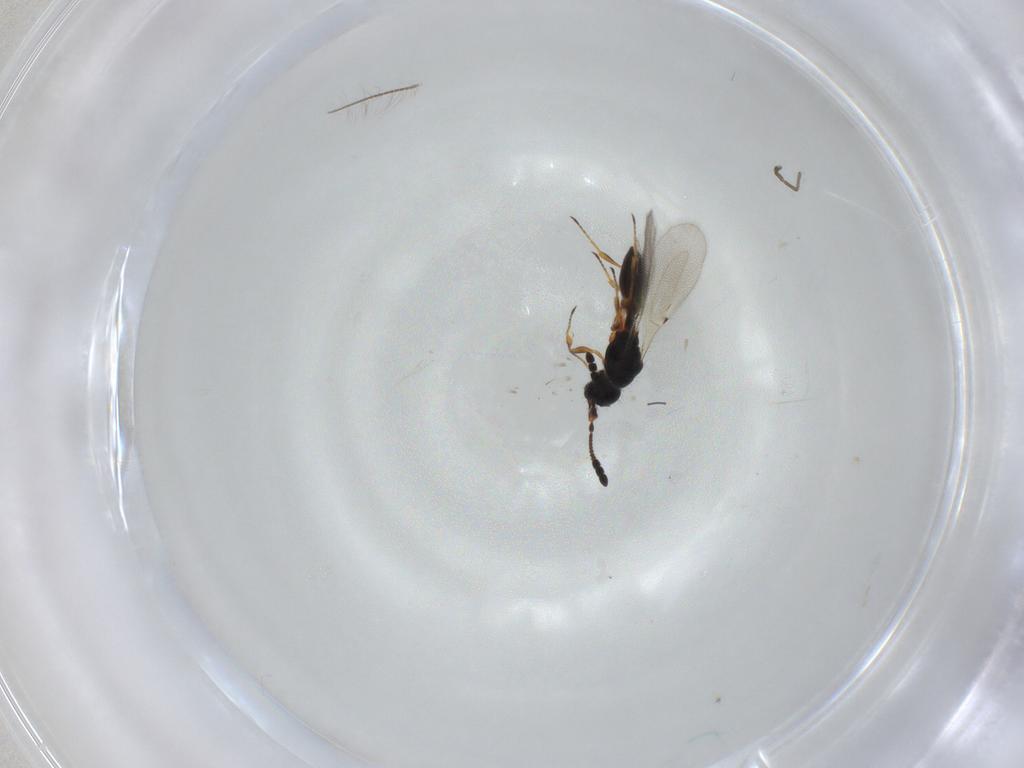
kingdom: Animalia
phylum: Arthropoda
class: Insecta
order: Hymenoptera
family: Diapriidae
